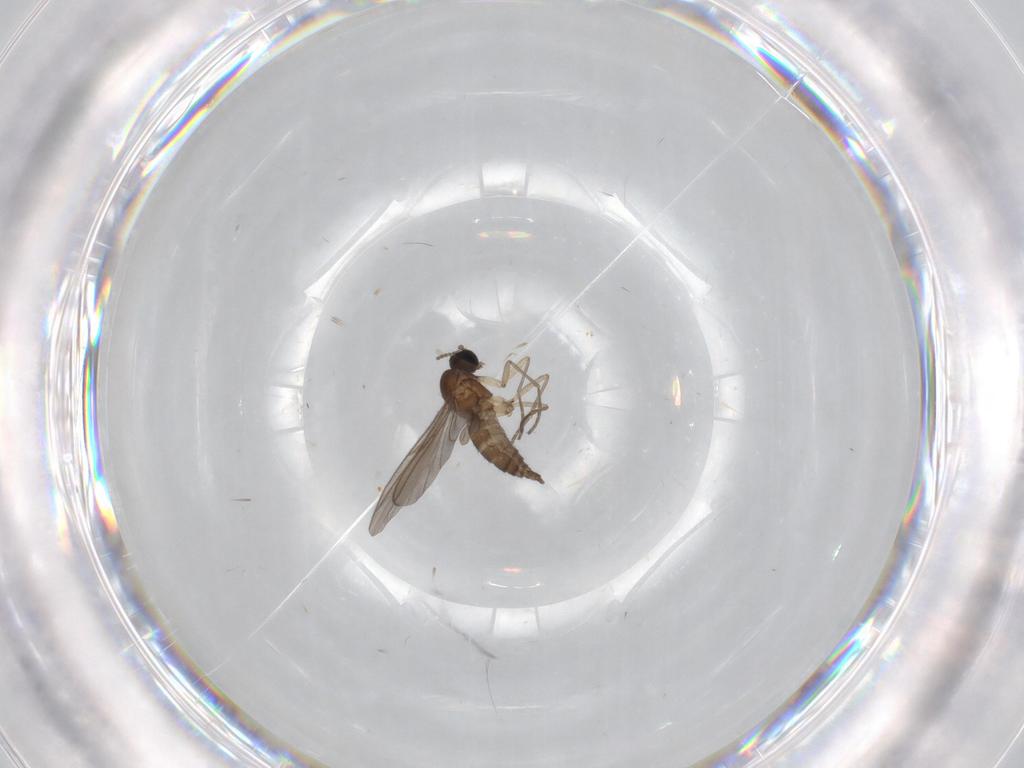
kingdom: Animalia
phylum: Arthropoda
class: Insecta
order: Diptera
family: Sciaridae
